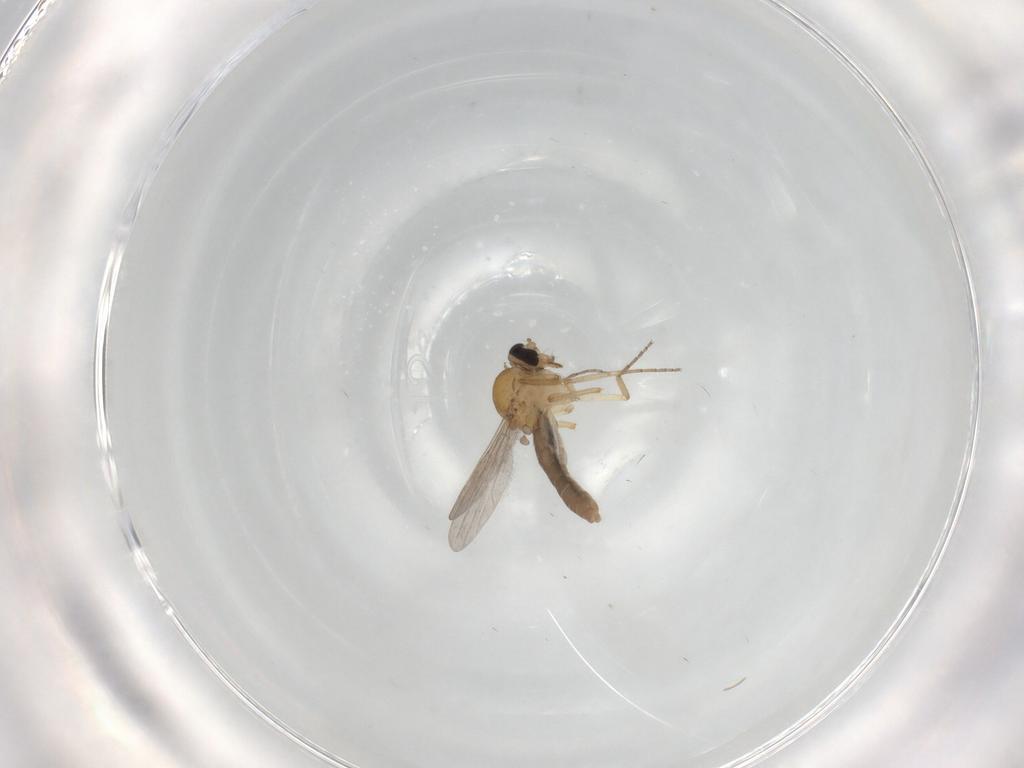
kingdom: Animalia
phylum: Arthropoda
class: Insecta
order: Diptera
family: Ceratopogonidae
